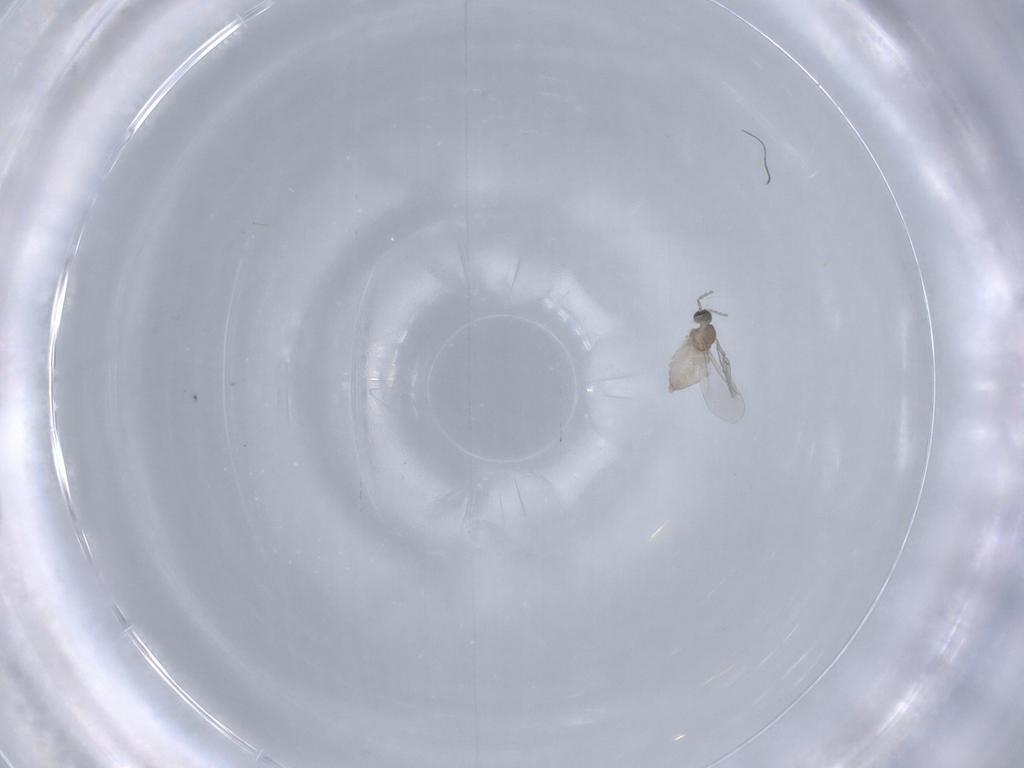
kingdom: Animalia
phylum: Arthropoda
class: Insecta
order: Diptera
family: Cecidomyiidae
